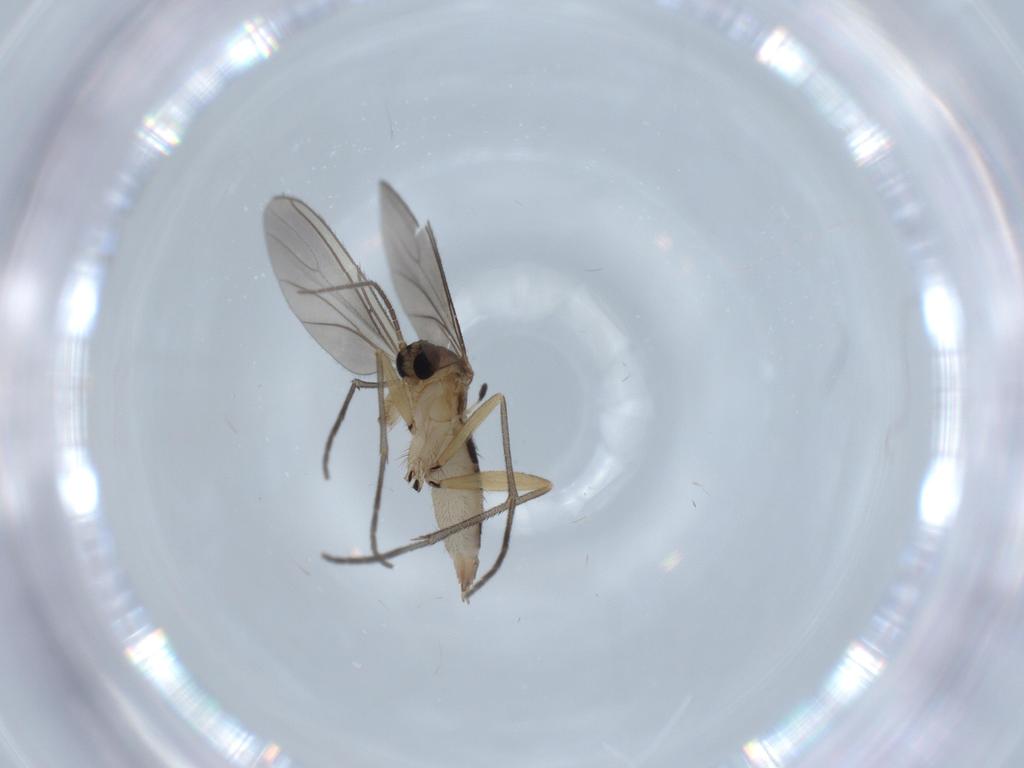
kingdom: Animalia
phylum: Arthropoda
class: Insecta
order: Diptera
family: Sciaridae
